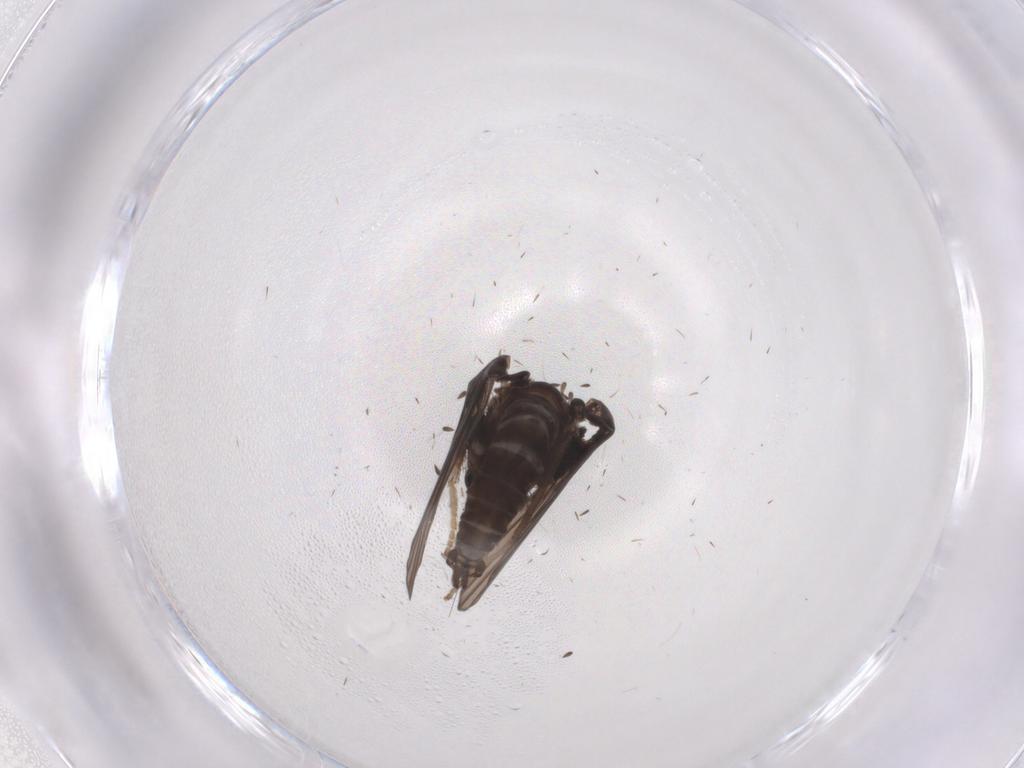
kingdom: Animalia
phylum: Arthropoda
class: Insecta
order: Diptera
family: Psychodidae
